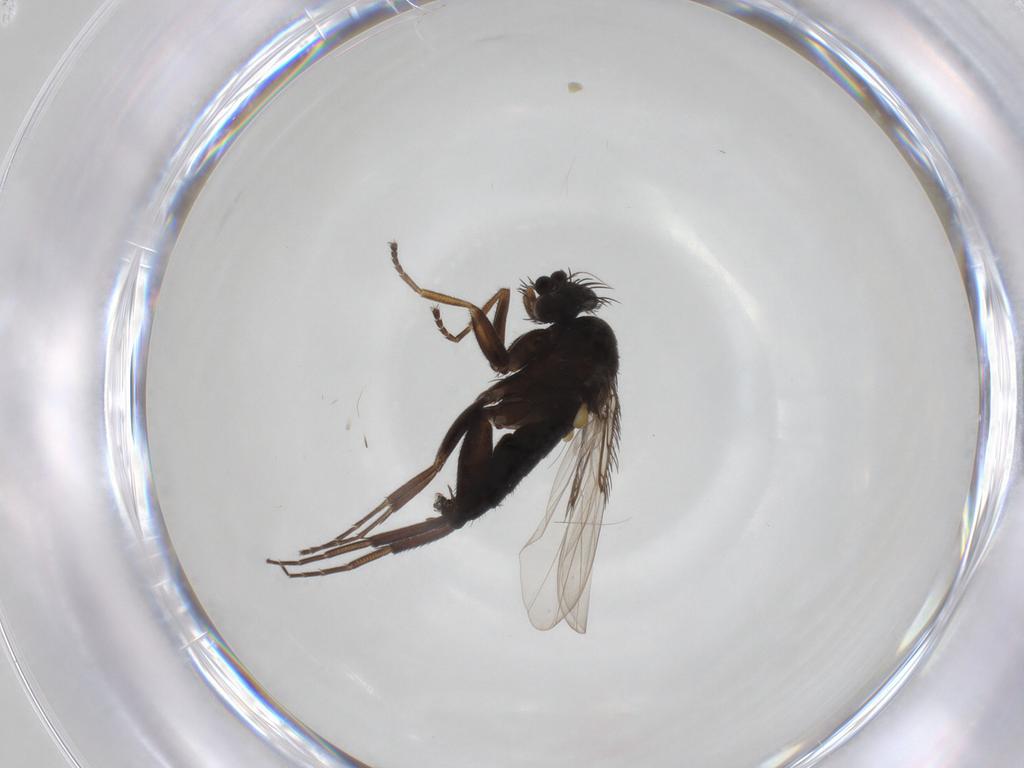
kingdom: Animalia
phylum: Arthropoda
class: Insecta
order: Diptera
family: Phoridae
